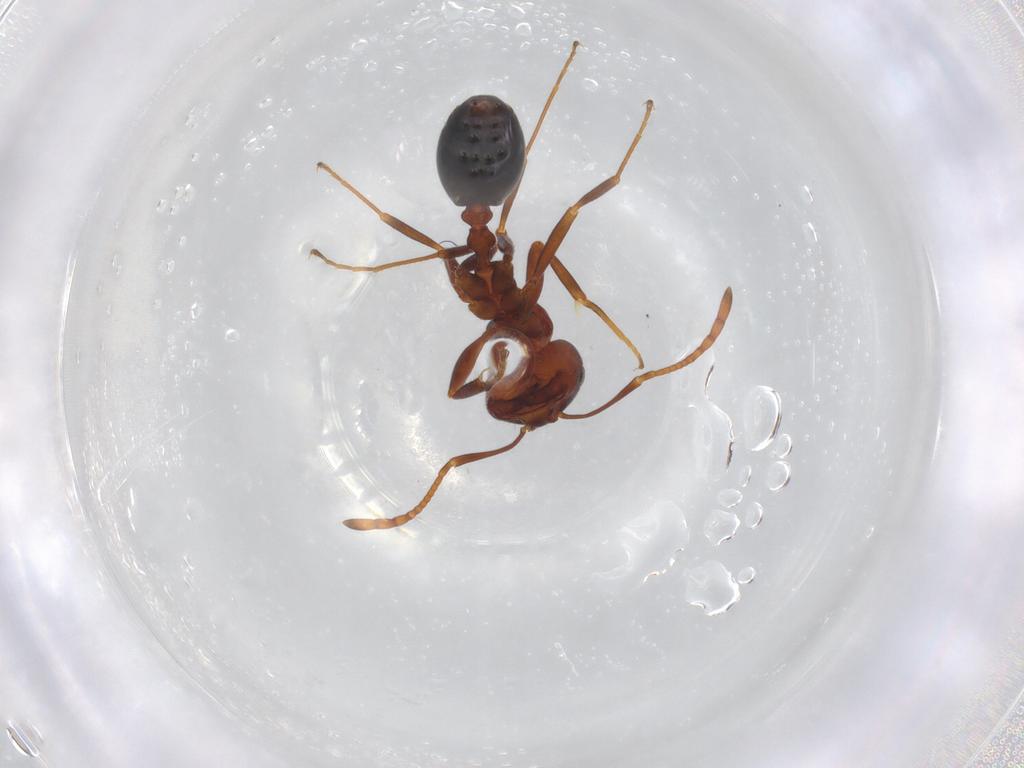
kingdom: Animalia
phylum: Arthropoda
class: Insecta
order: Hymenoptera
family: Formicidae
